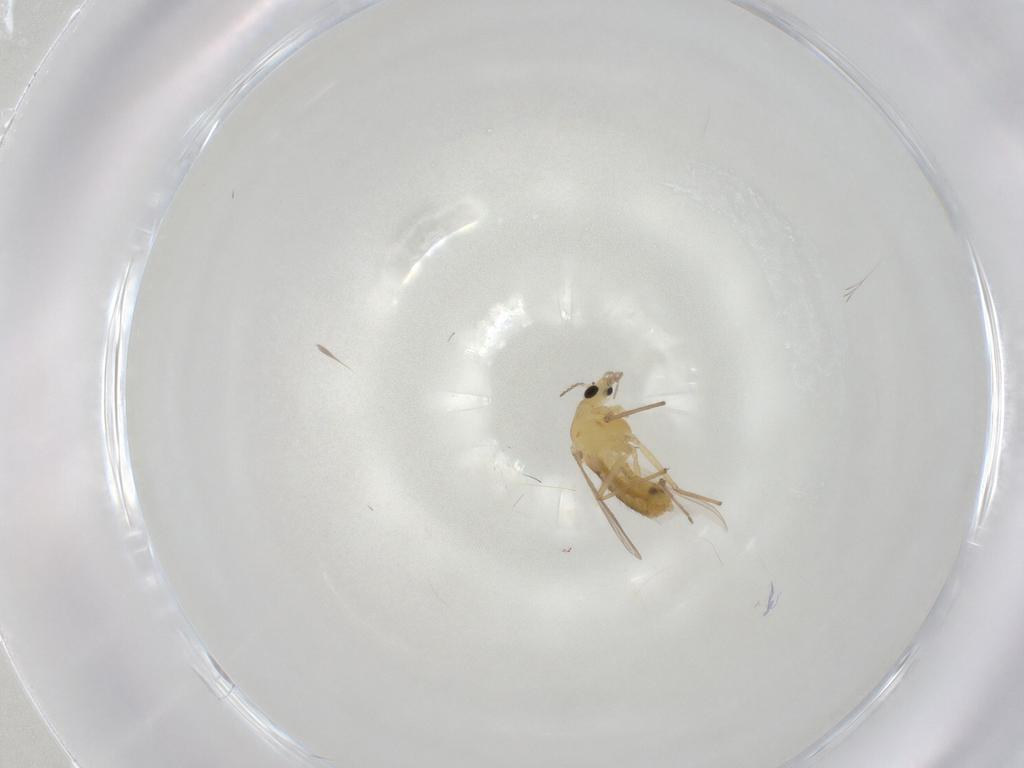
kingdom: Animalia
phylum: Arthropoda
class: Insecta
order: Diptera
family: Chironomidae
